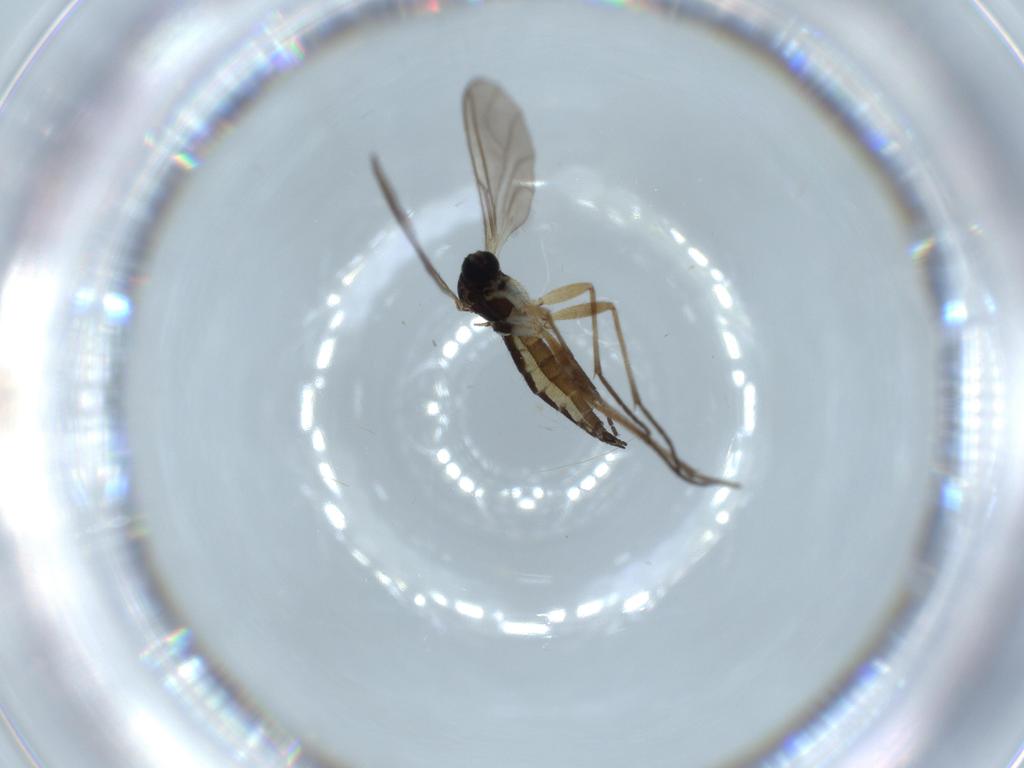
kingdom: Animalia
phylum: Arthropoda
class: Insecta
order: Diptera
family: Sciaridae
